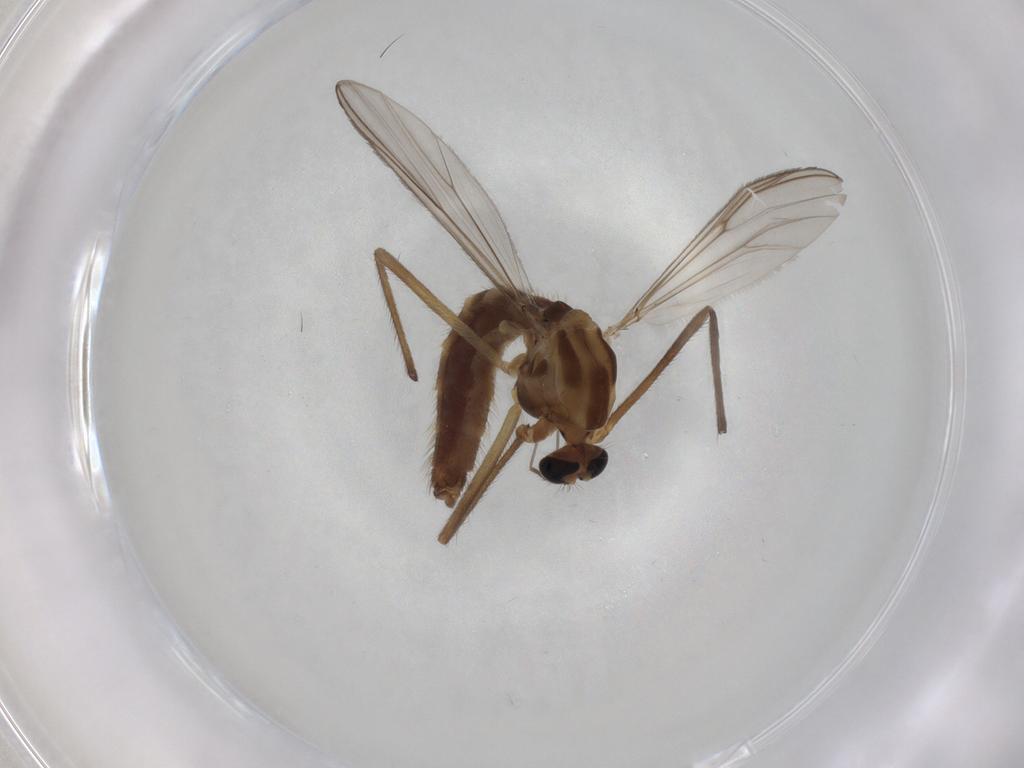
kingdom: Animalia
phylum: Arthropoda
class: Insecta
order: Diptera
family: Chironomidae
